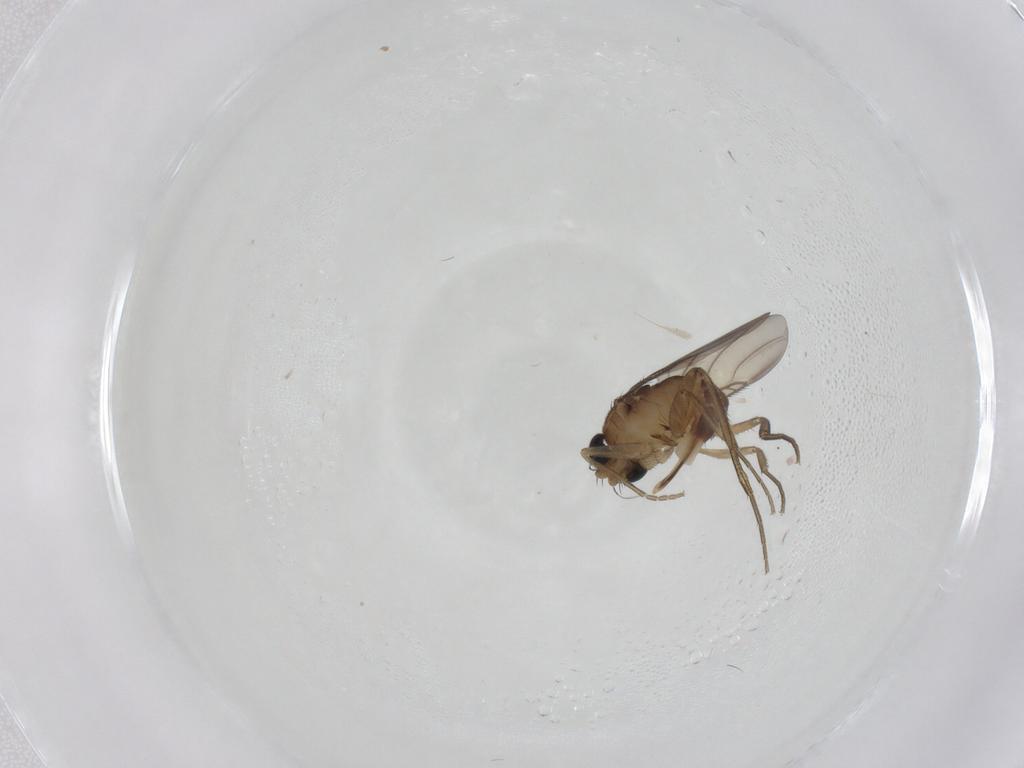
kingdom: Animalia
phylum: Arthropoda
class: Insecta
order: Diptera
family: Phoridae
